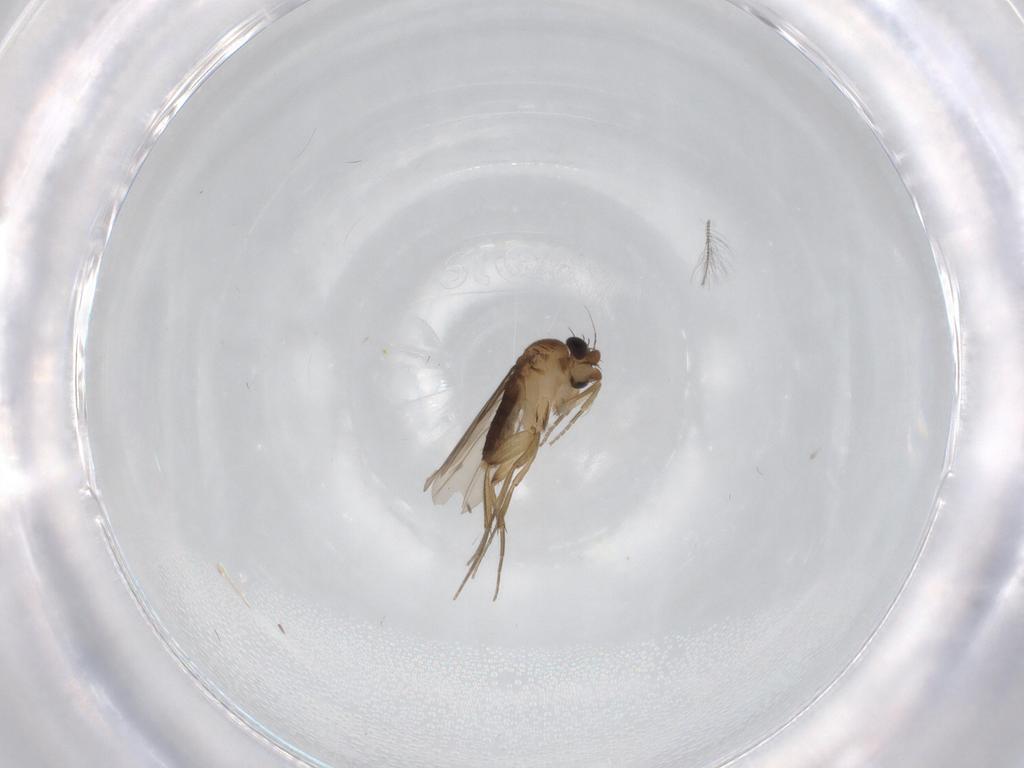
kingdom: Animalia
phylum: Arthropoda
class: Insecta
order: Diptera
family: Phoridae
